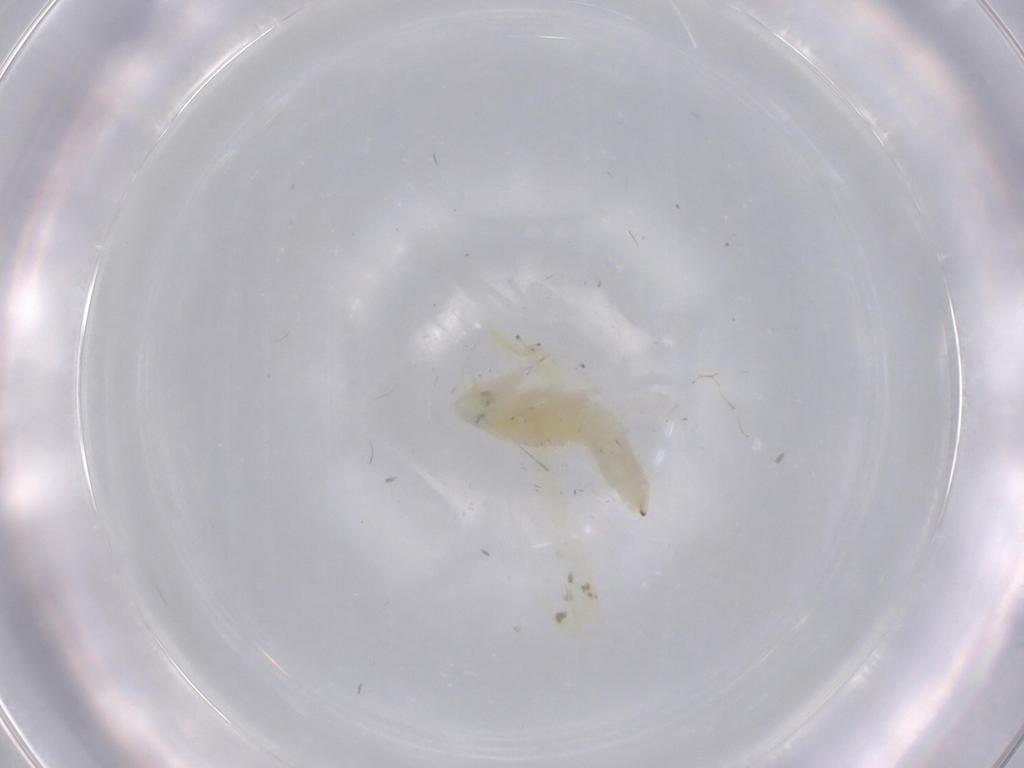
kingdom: Animalia
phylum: Arthropoda
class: Insecta
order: Hemiptera
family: Cicadellidae
